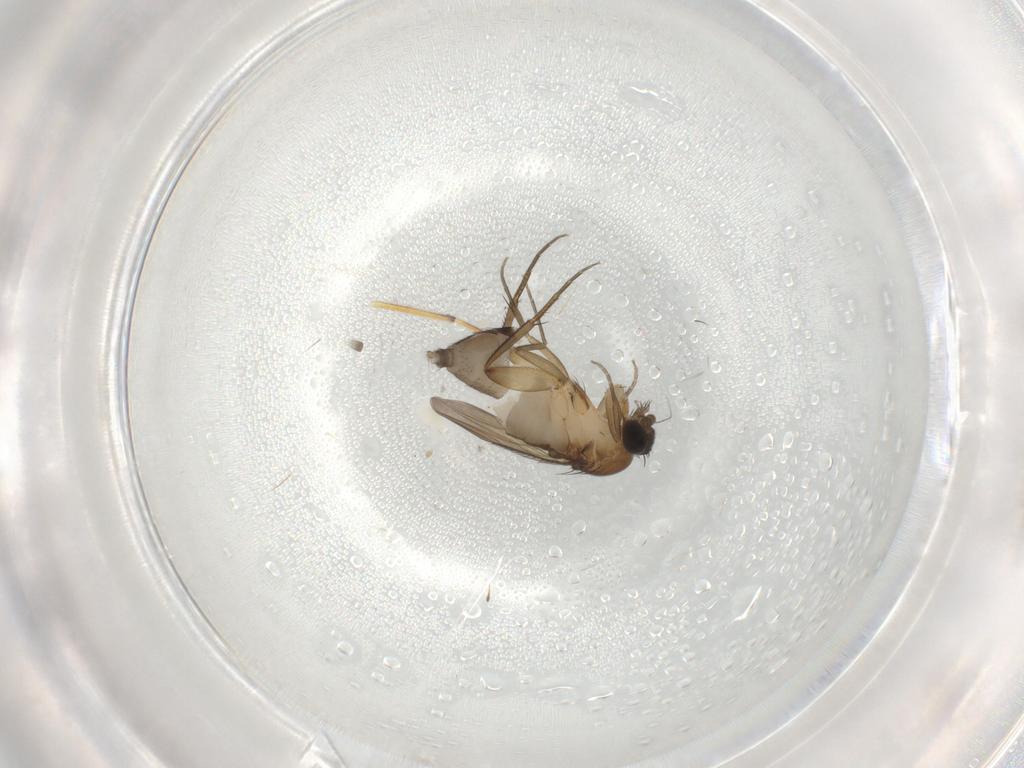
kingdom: Animalia
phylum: Arthropoda
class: Insecta
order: Diptera
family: Phoridae
